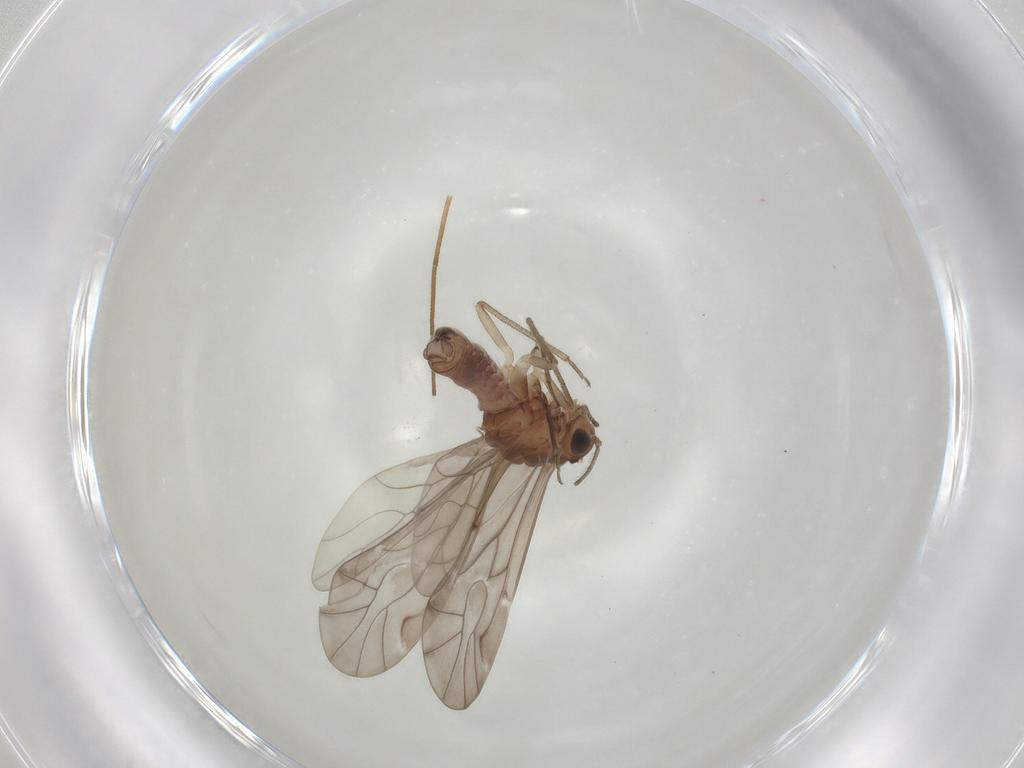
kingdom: Animalia
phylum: Arthropoda
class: Insecta
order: Psocodea
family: Peripsocidae
